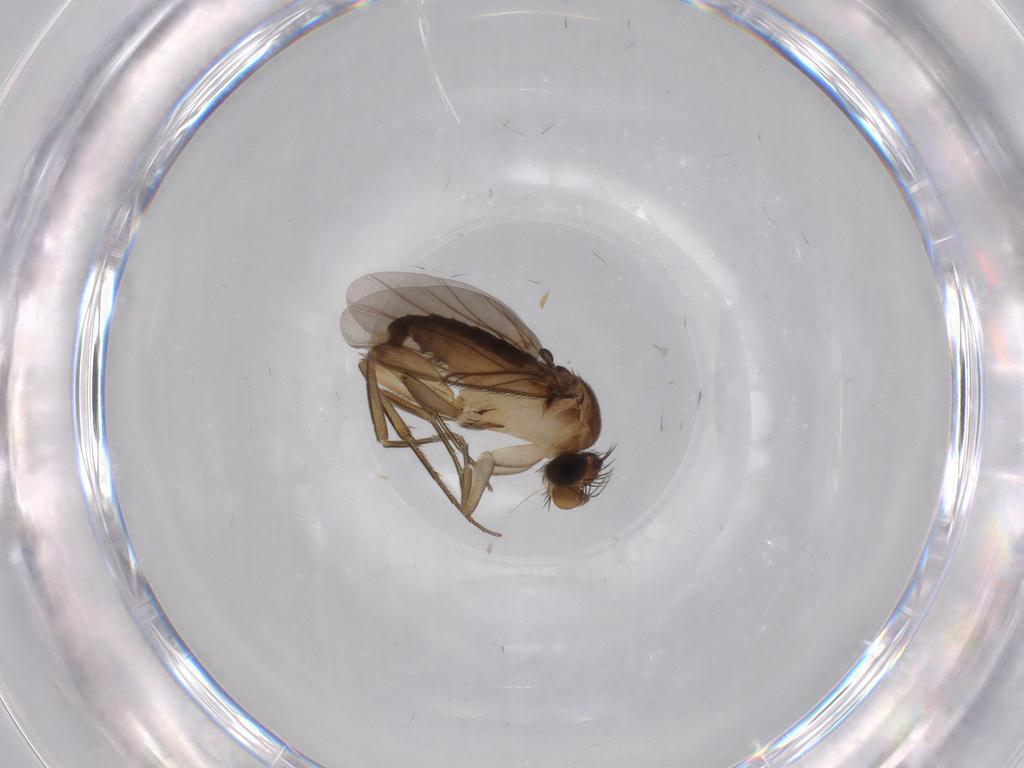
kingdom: Animalia
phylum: Arthropoda
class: Insecta
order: Diptera
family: Phoridae
